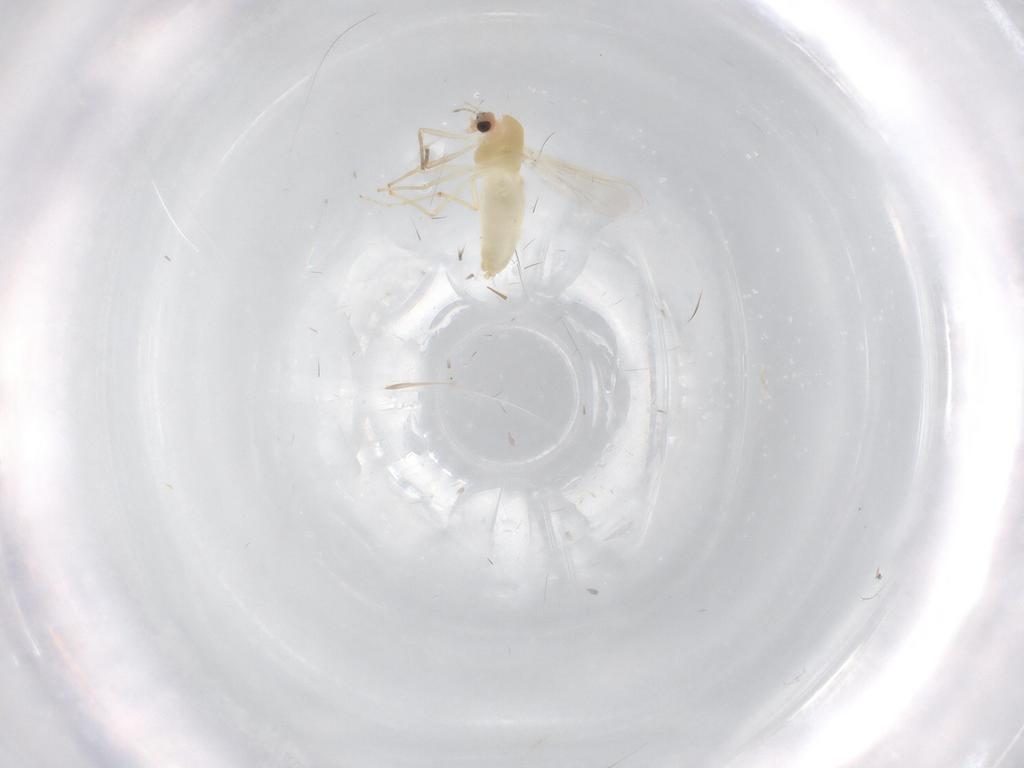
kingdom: Animalia
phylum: Arthropoda
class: Insecta
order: Diptera
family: Chironomidae
